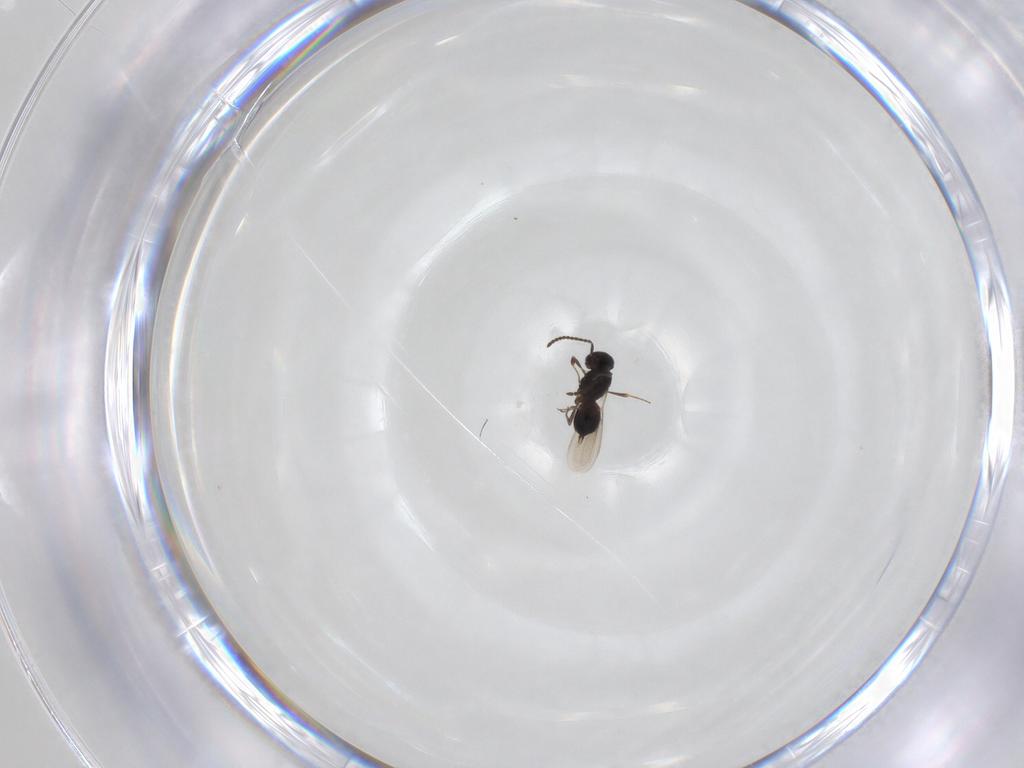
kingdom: Animalia
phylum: Arthropoda
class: Insecta
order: Hymenoptera
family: Scelionidae
